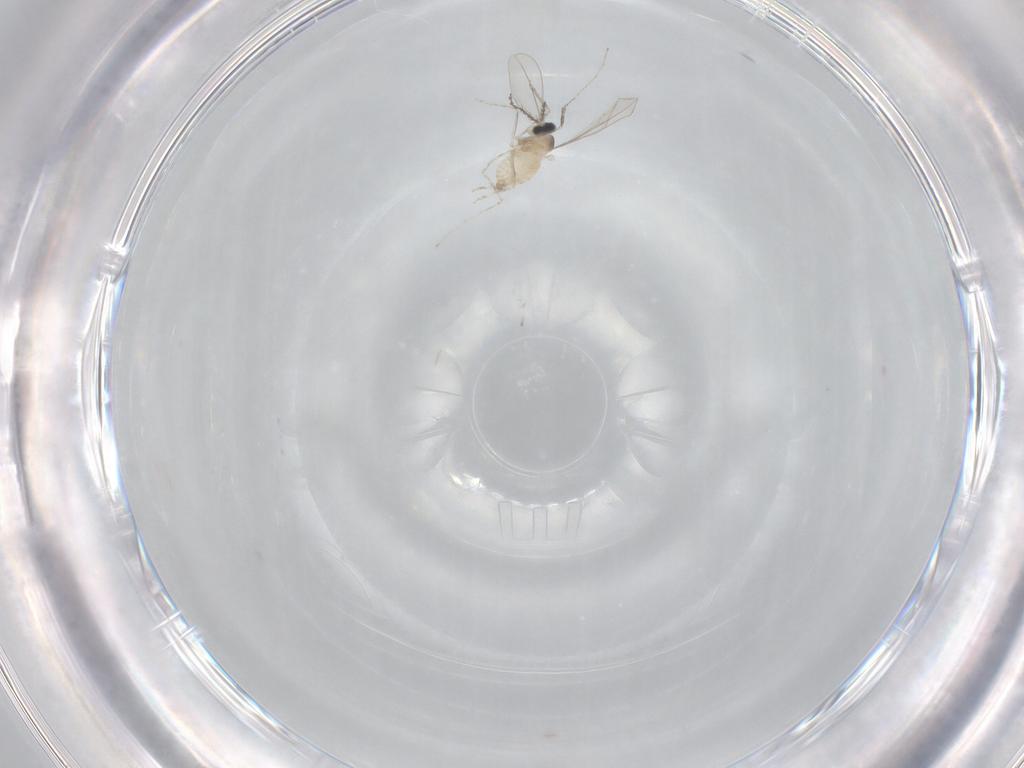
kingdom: Animalia
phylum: Arthropoda
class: Insecta
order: Diptera
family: Cecidomyiidae
